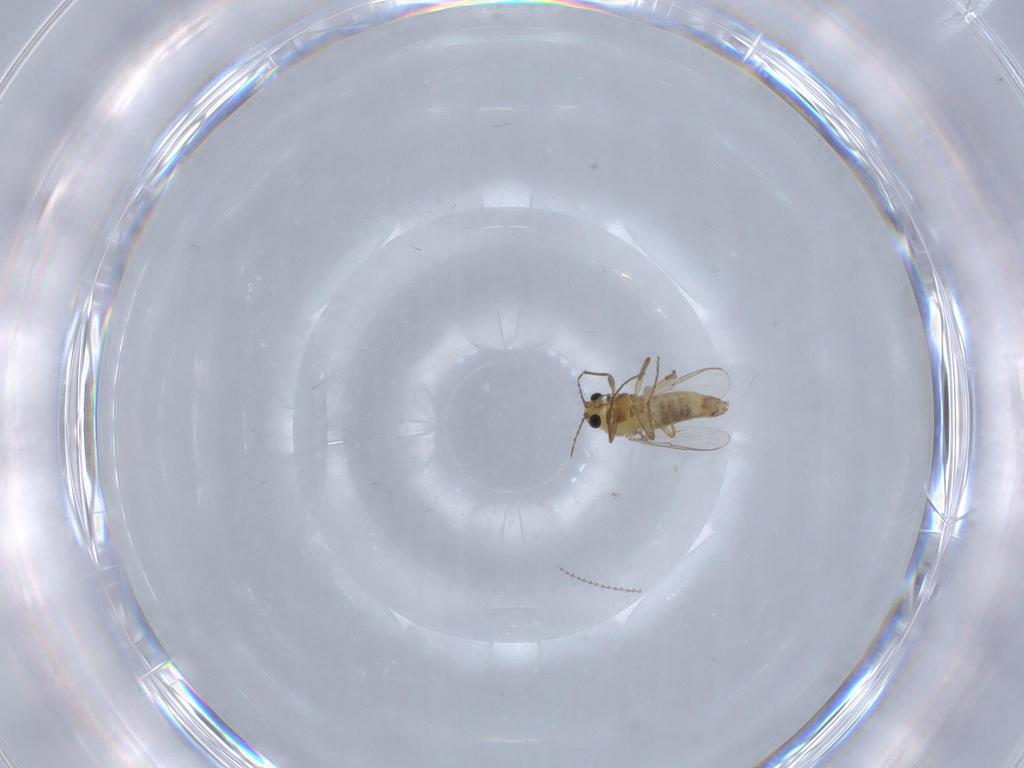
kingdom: Animalia
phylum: Arthropoda
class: Insecta
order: Diptera
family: Chironomidae
